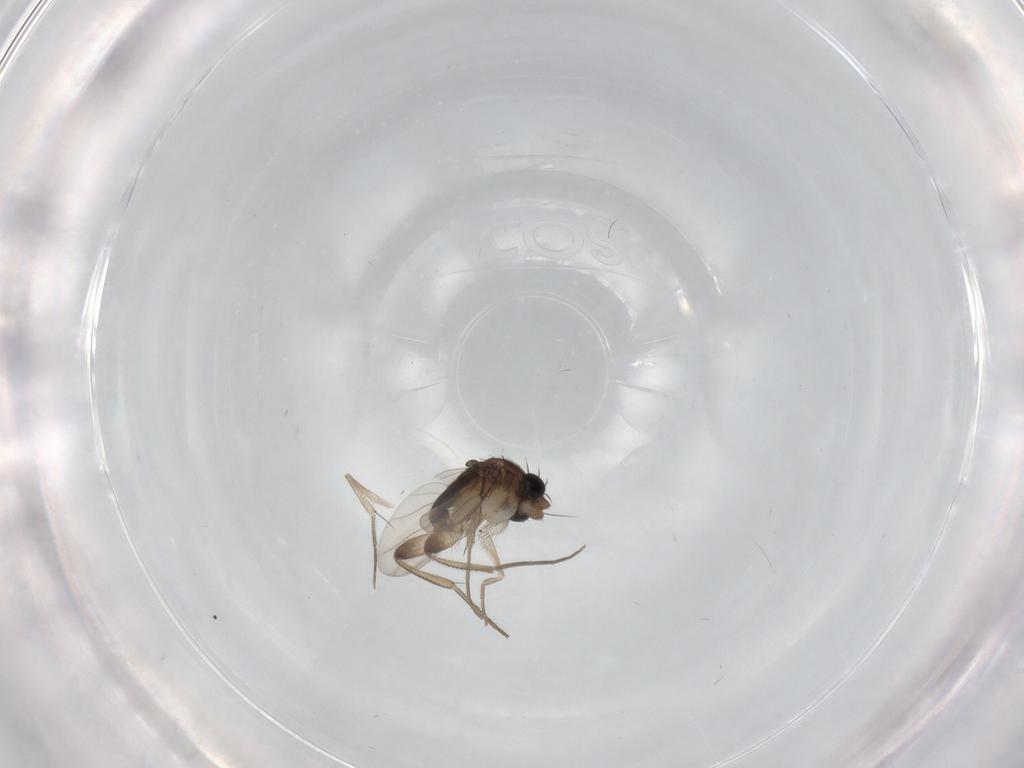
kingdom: Animalia
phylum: Arthropoda
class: Insecta
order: Diptera
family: Phoridae
